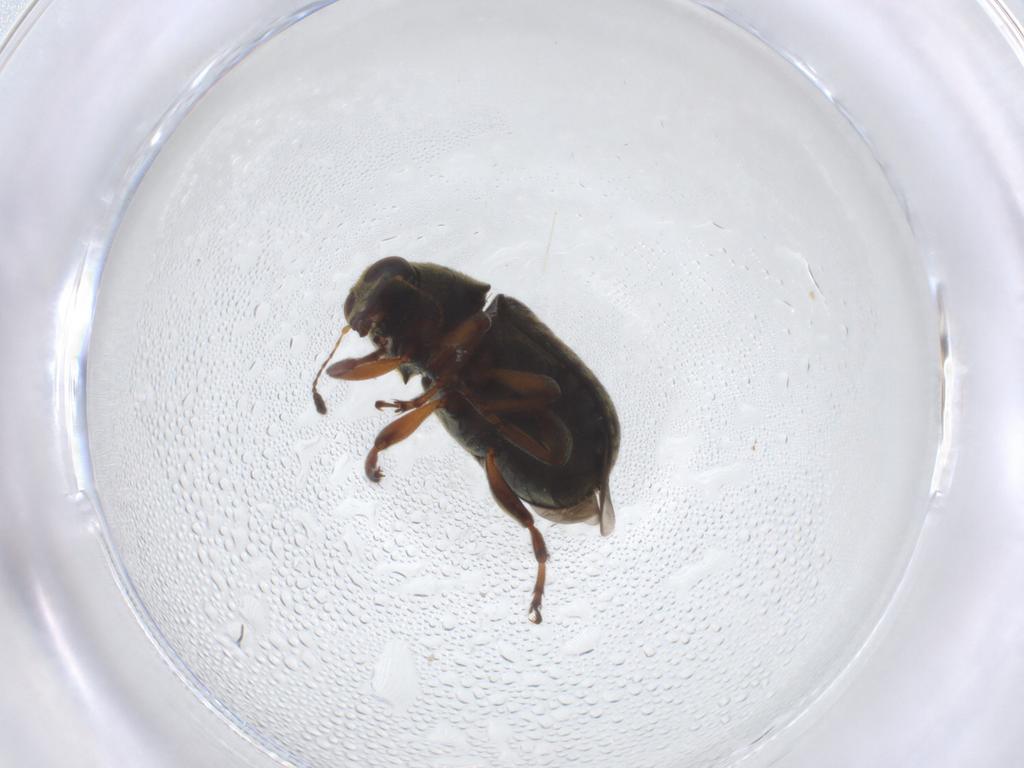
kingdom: Animalia
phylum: Arthropoda
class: Insecta
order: Coleoptera
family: Anthribidae
